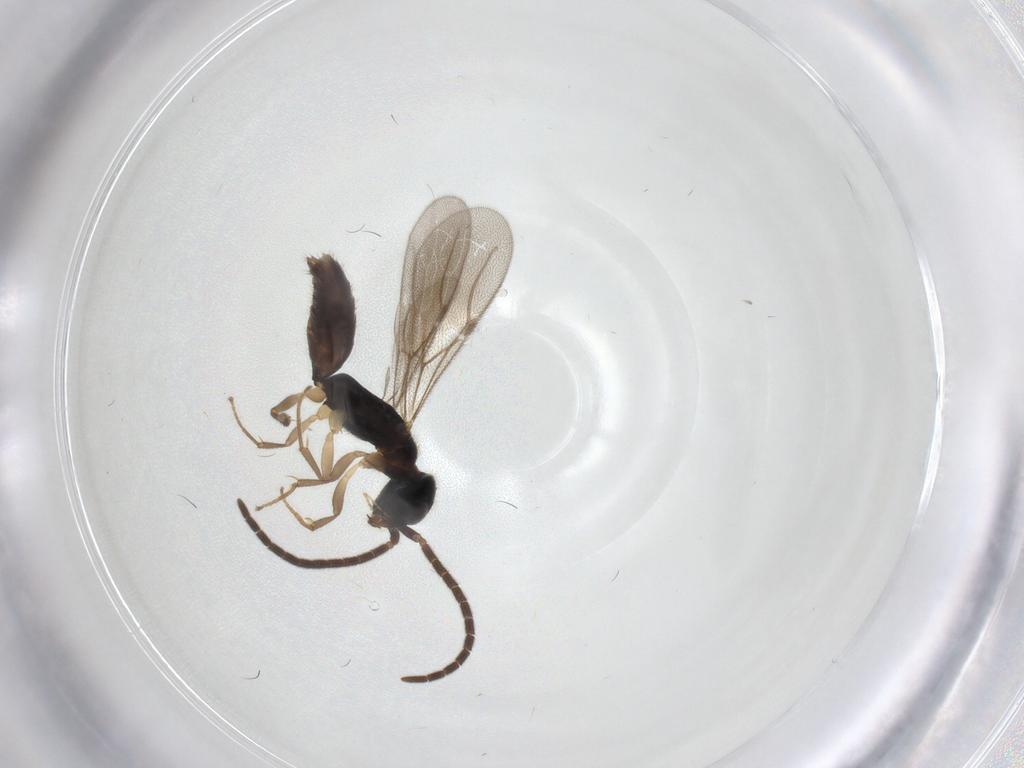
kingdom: Animalia
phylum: Arthropoda
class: Insecta
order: Hymenoptera
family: Bethylidae
